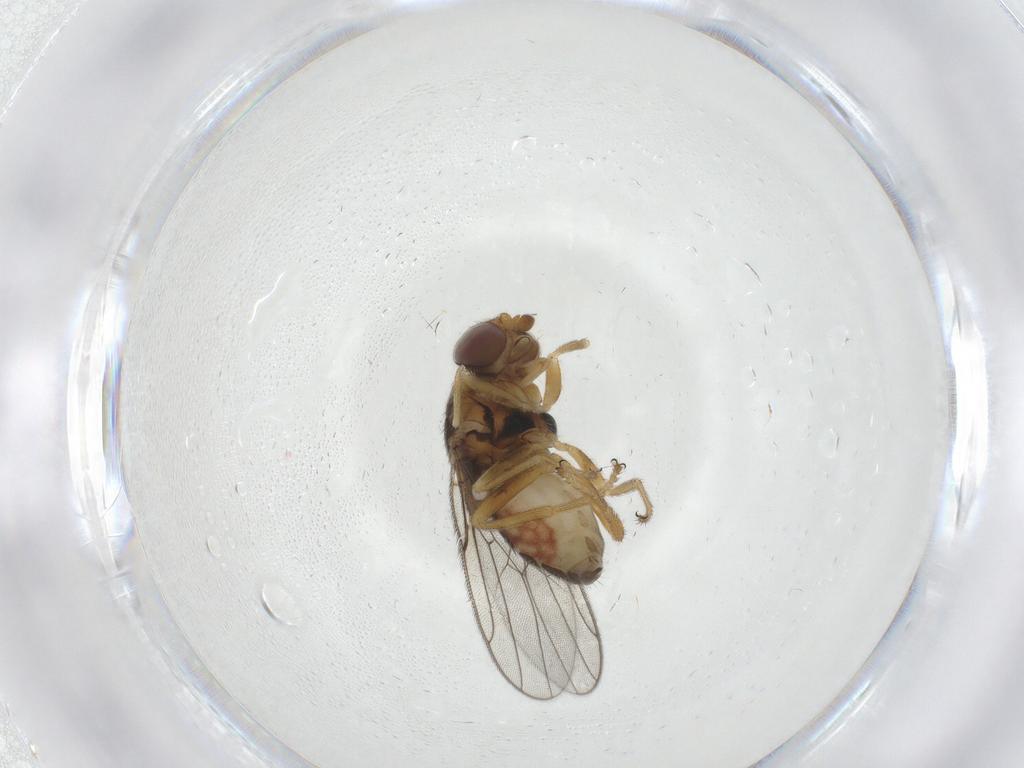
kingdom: Animalia
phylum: Arthropoda
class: Insecta
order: Diptera
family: Chloropidae
